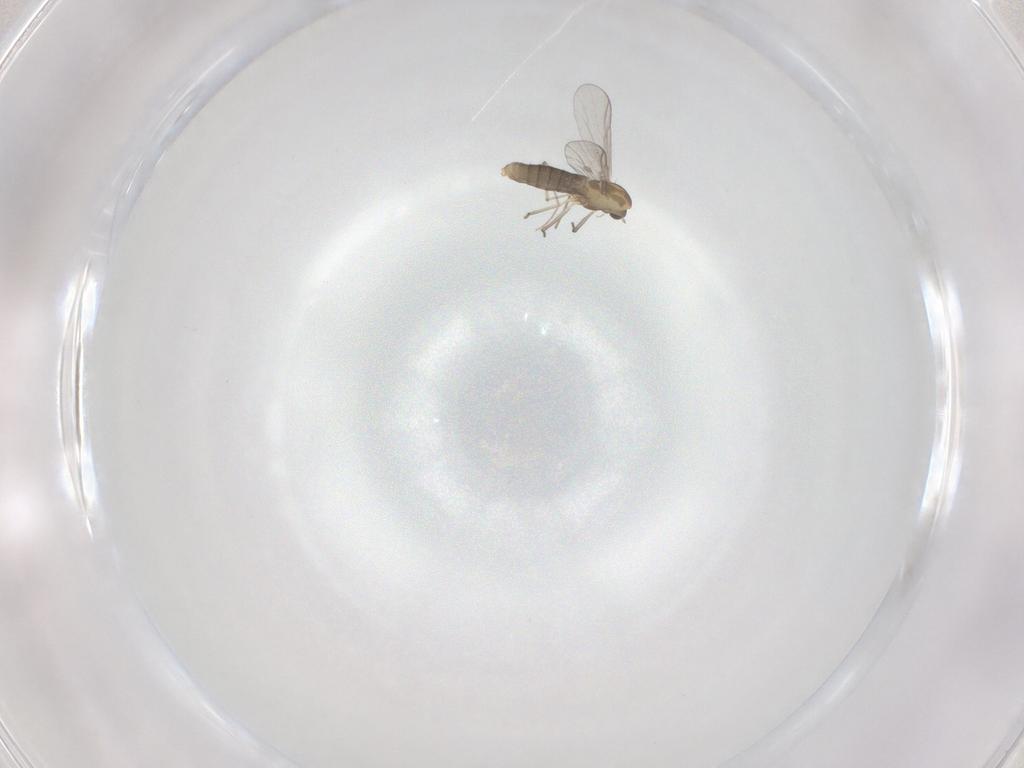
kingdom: Animalia
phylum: Arthropoda
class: Insecta
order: Diptera
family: Chironomidae
